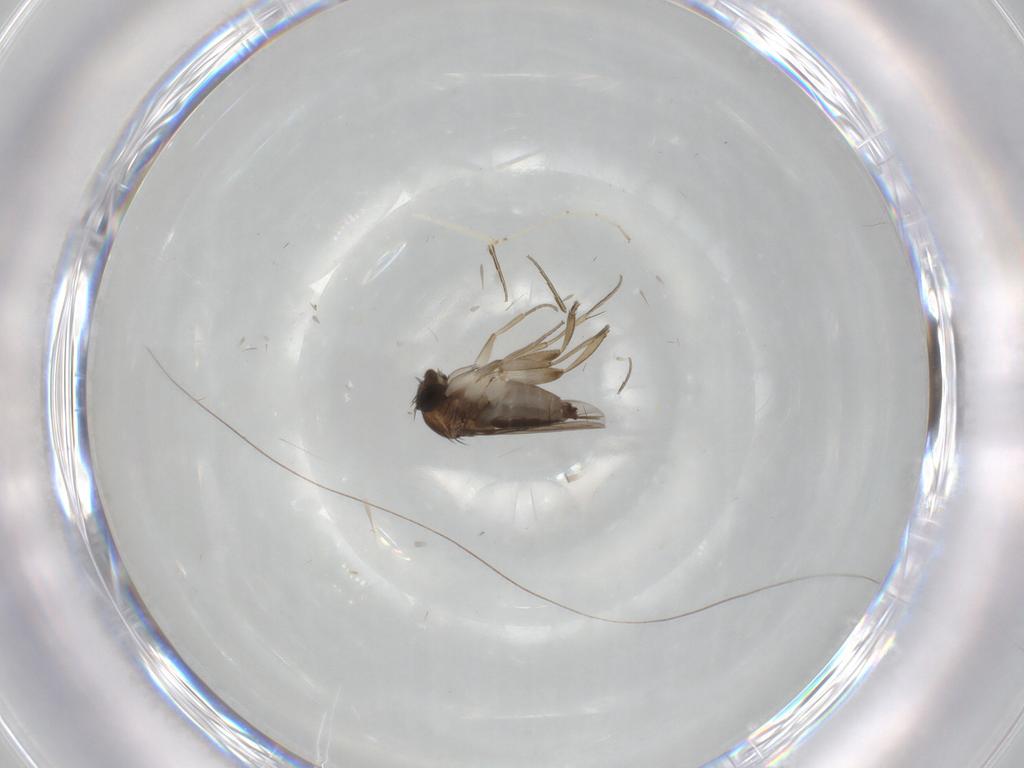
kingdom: Animalia
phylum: Arthropoda
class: Insecta
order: Diptera
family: Phoridae
